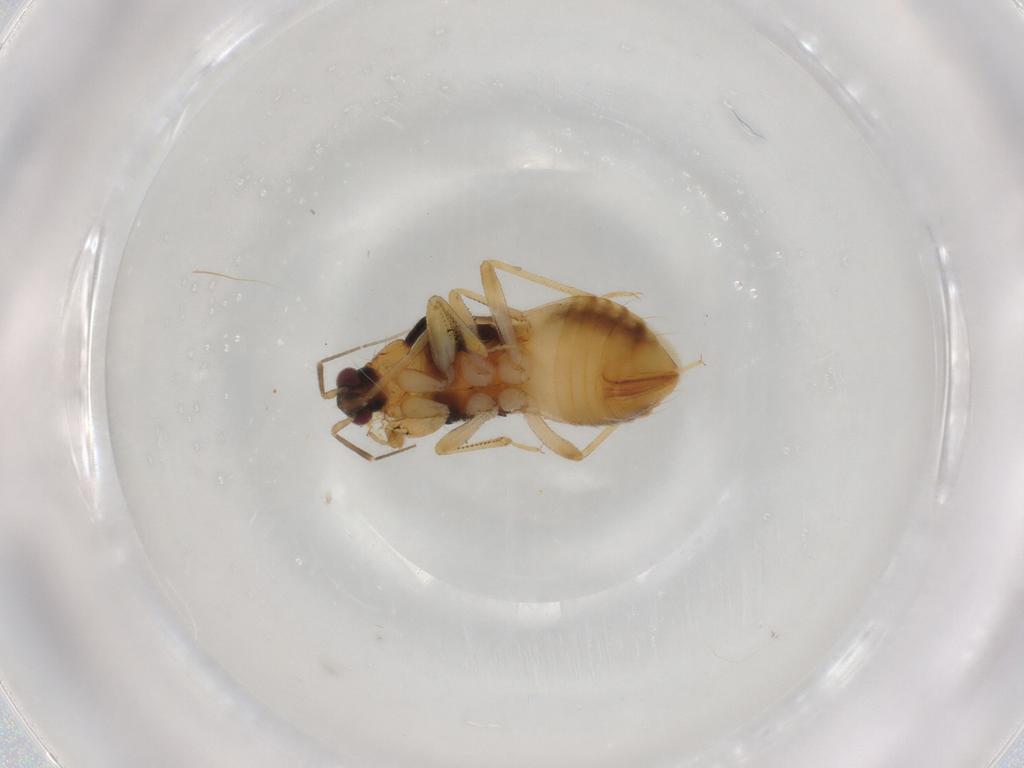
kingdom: Animalia
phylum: Arthropoda
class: Insecta
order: Hemiptera
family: Nabidae
